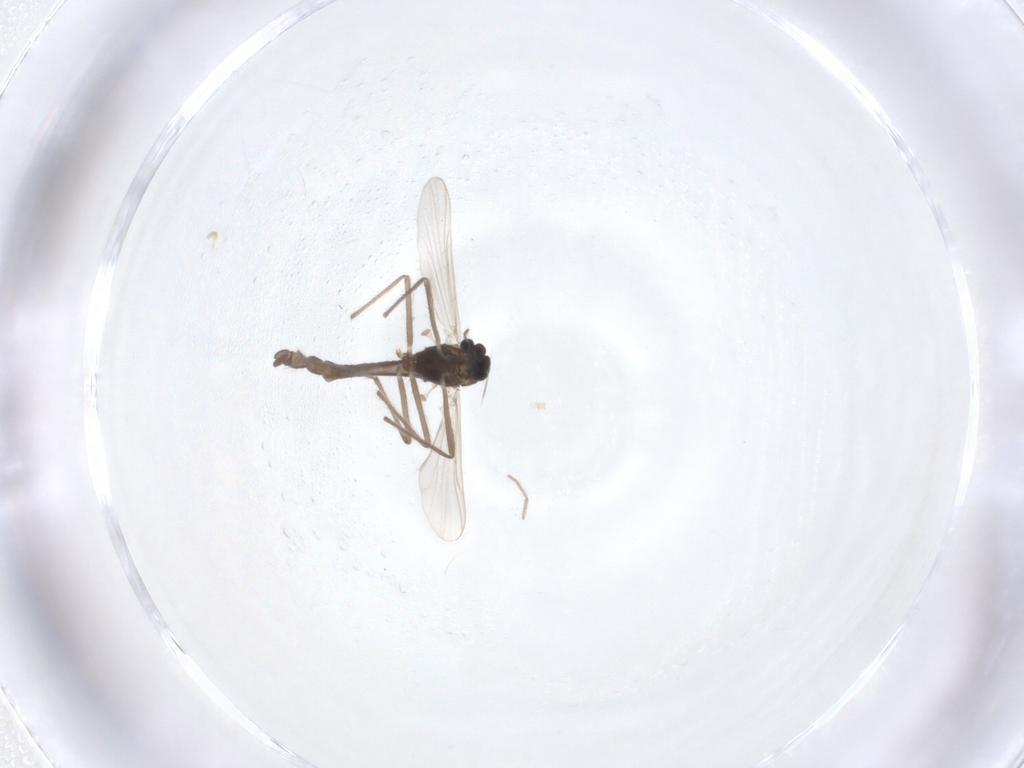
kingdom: Animalia
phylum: Arthropoda
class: Insecta
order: Diptera
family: Chironomidae
